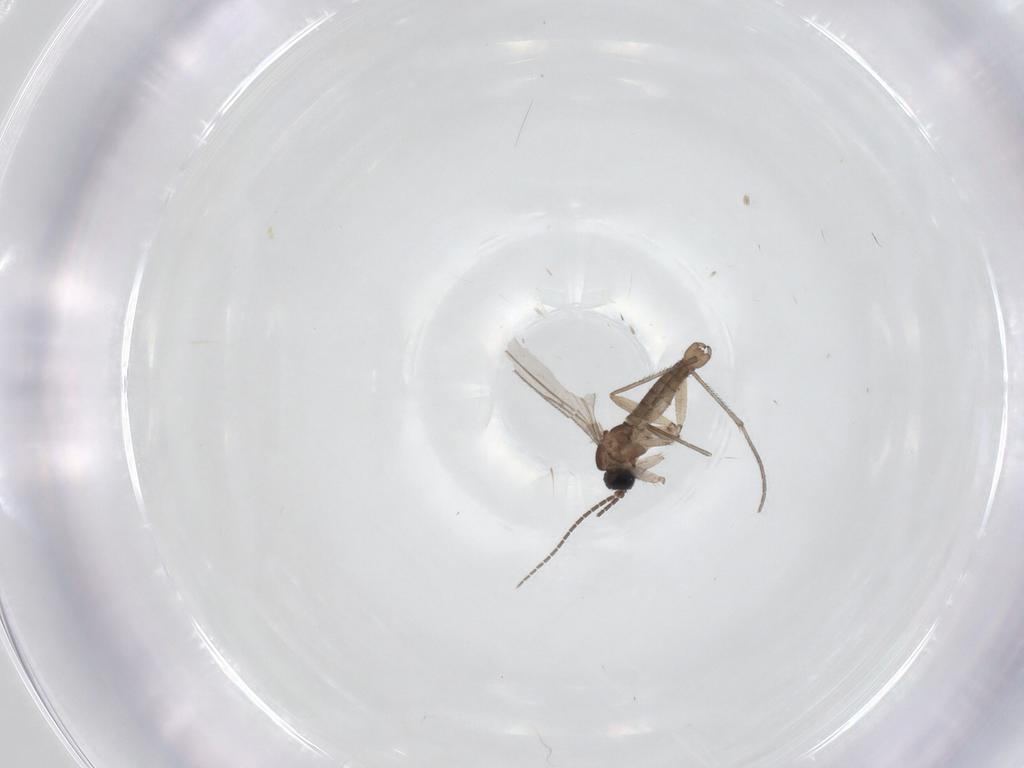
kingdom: Animalia
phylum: Arthropoda
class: Insecta
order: Diptera
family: Sciaridae
